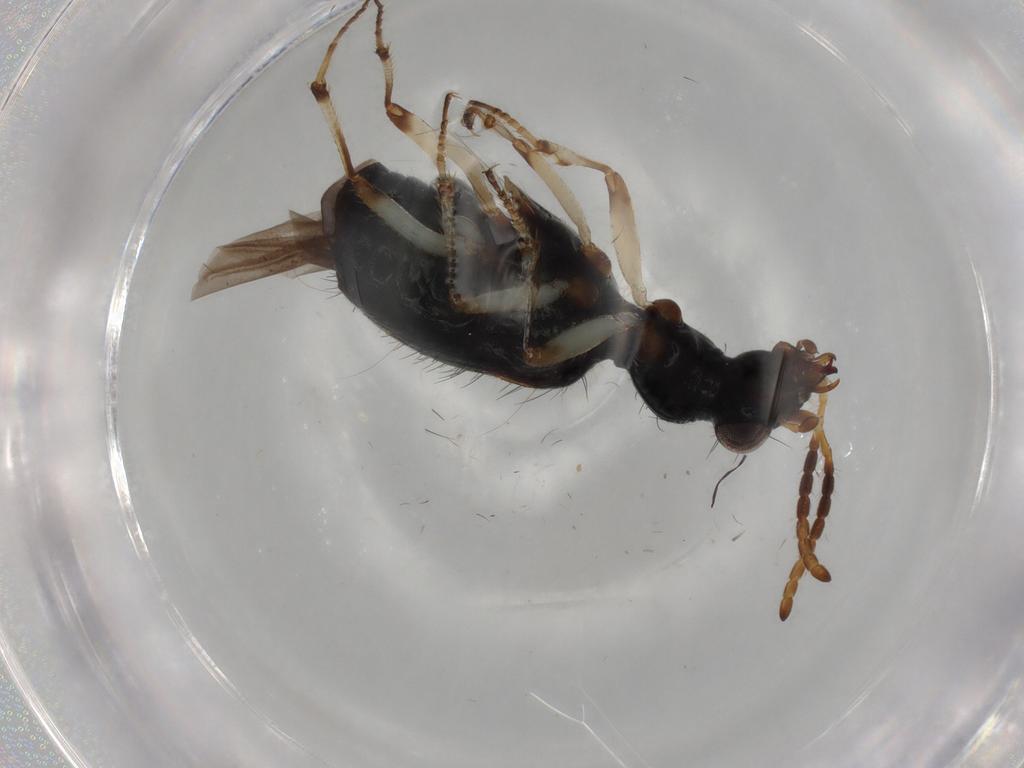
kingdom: Animalia
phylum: Arthropoda
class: Insecta
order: Coleoptera
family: Carabidae
